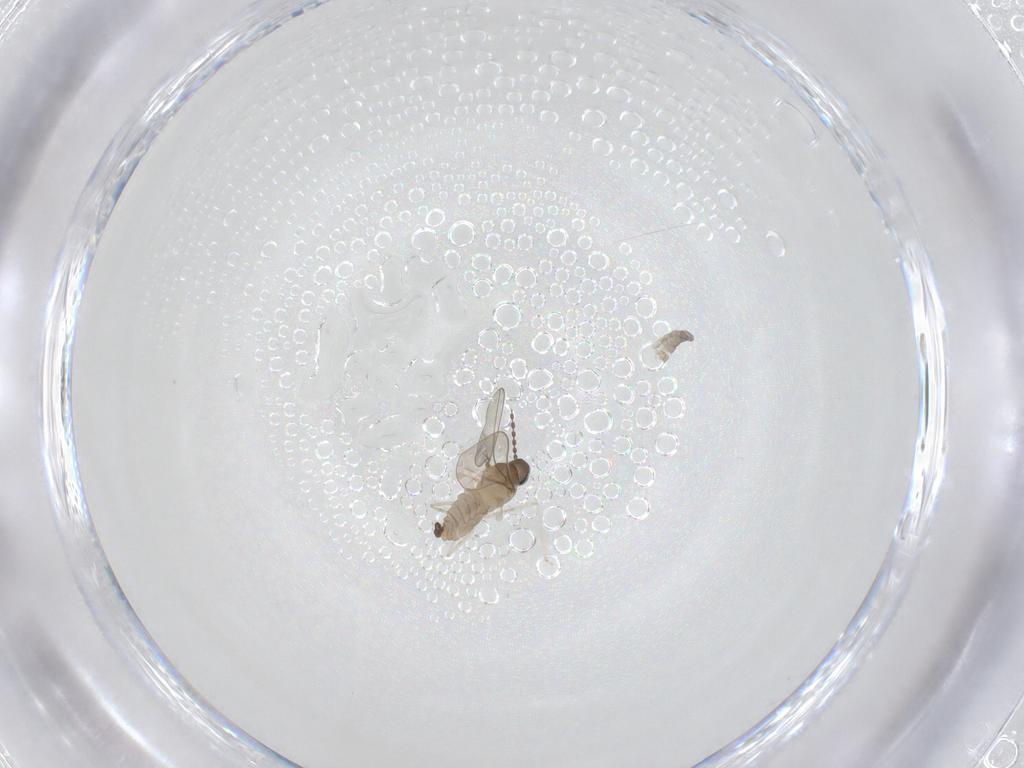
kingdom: Animalia
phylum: Arthropoda
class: Insecta
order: Diptera
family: Cecidomyiidae
